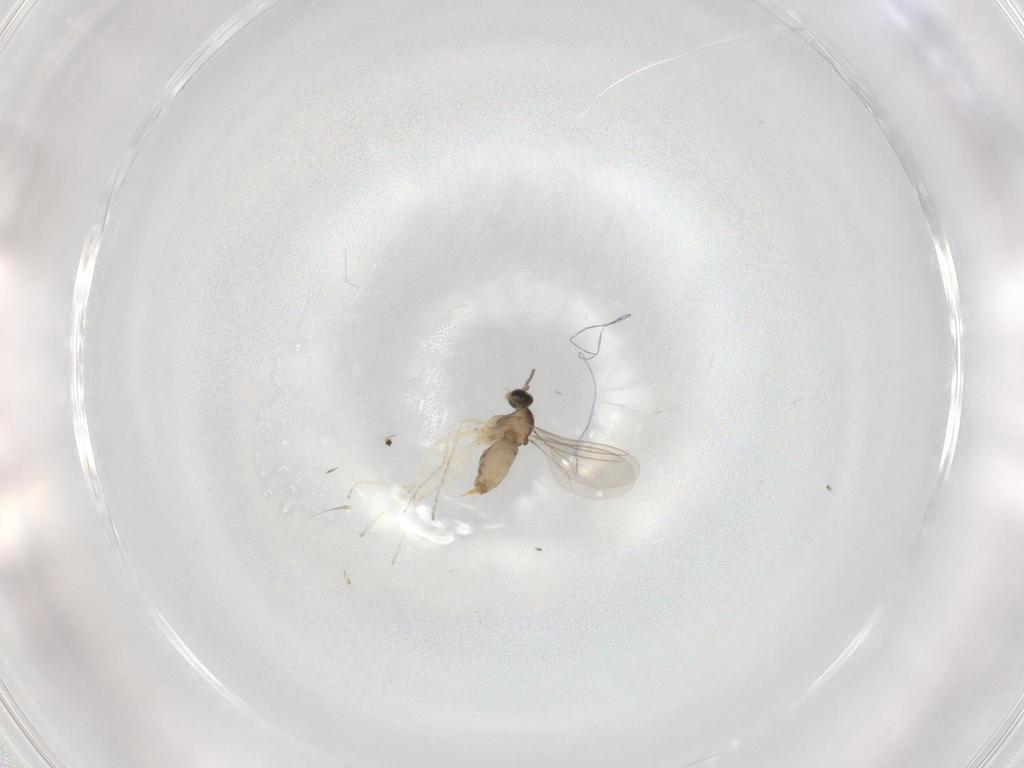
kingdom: Animalia
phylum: Arthropoda
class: Insecta
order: Diptera
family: Cecidomyiidae
